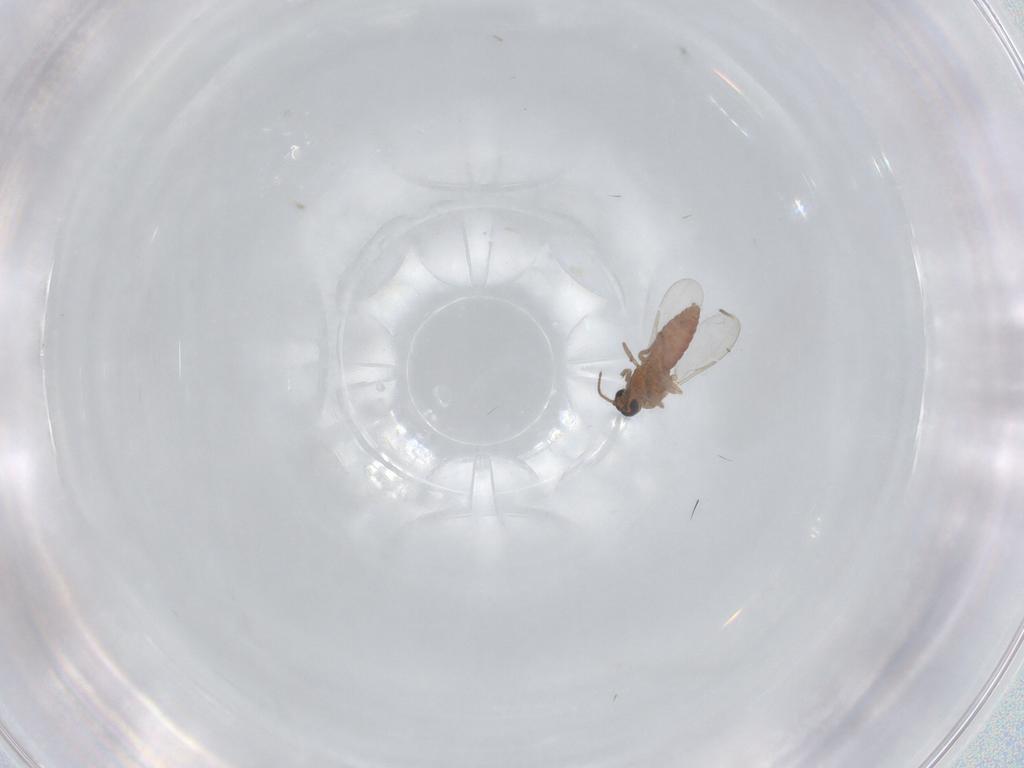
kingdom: Animalia
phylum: Arthropoda
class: Insecta
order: Diptera
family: Ceratopogonidae
